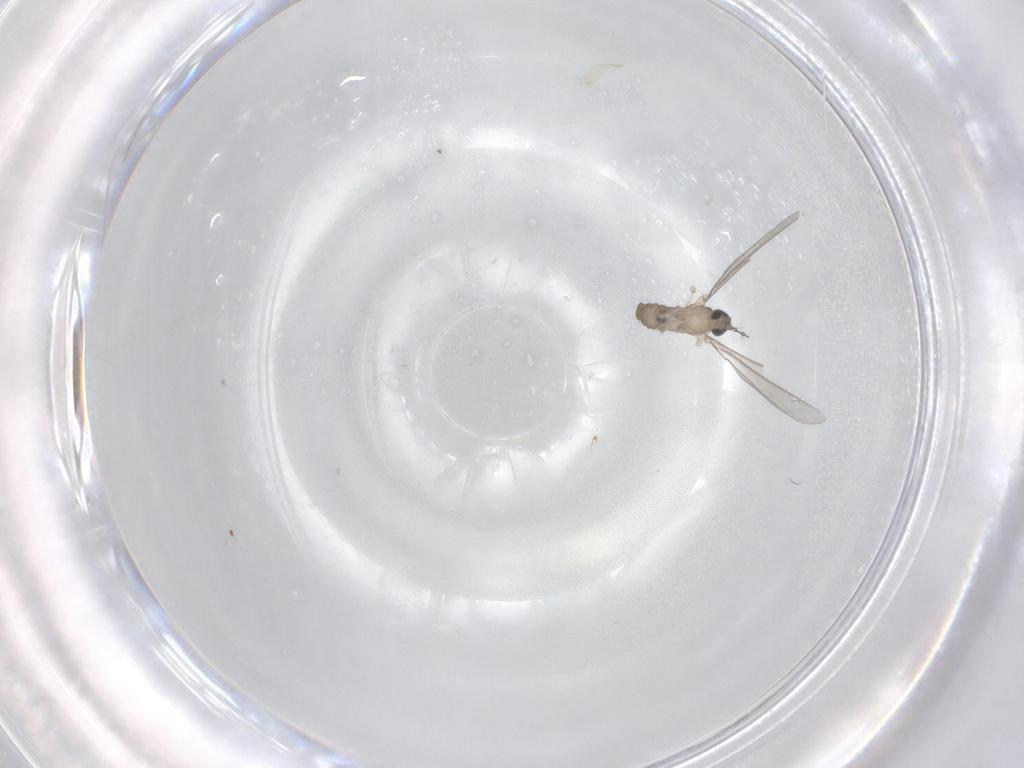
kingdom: Animalia
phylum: Arthropoda
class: Insecta
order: Diptera
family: Cecidomyiidae
